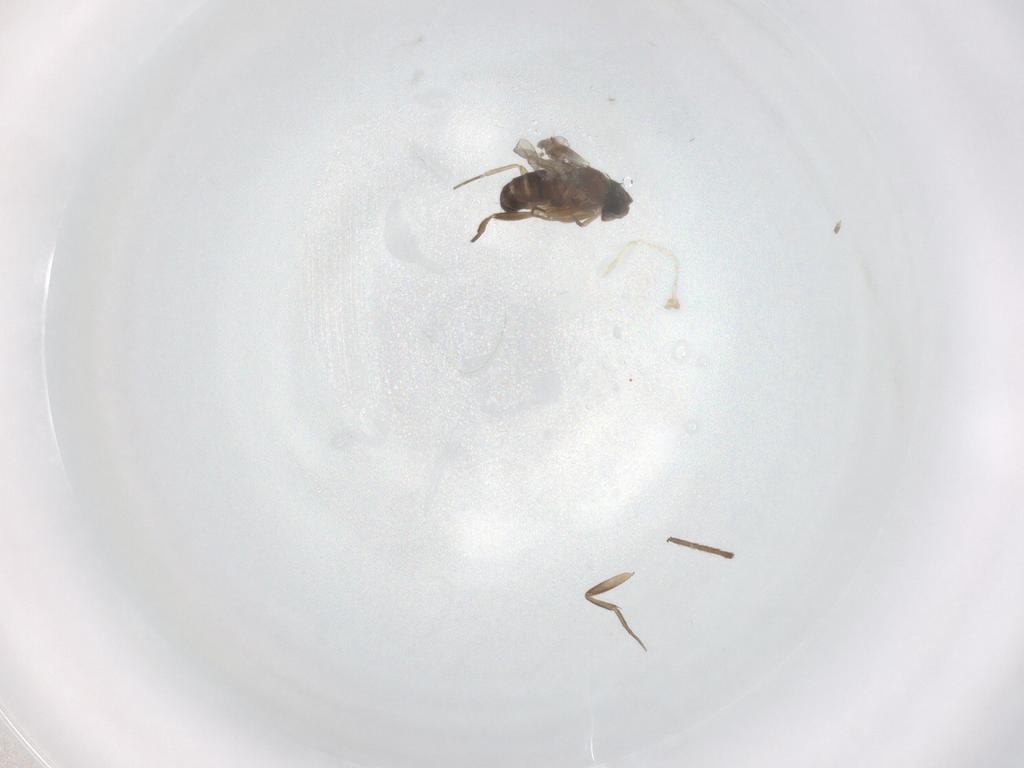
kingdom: Animalia
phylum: Arthropoda
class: Insecta
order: Diptera
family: Phoridae
